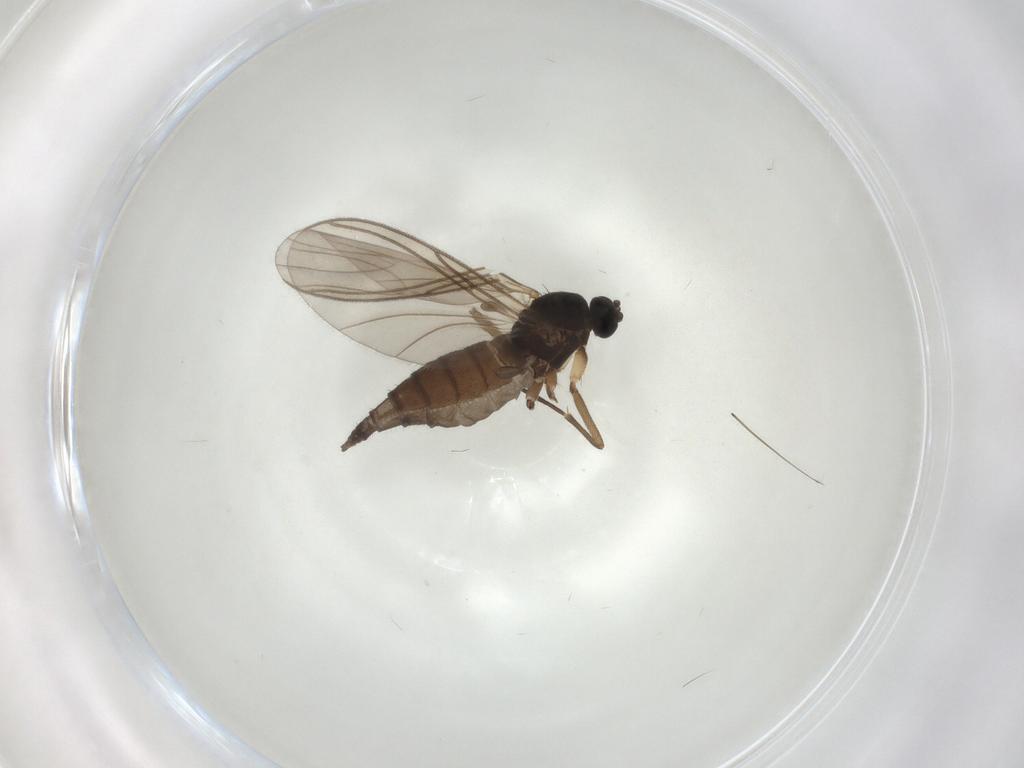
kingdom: Animalia
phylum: Arthropoda
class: Insecta
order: Diptera
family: Sciaridae
